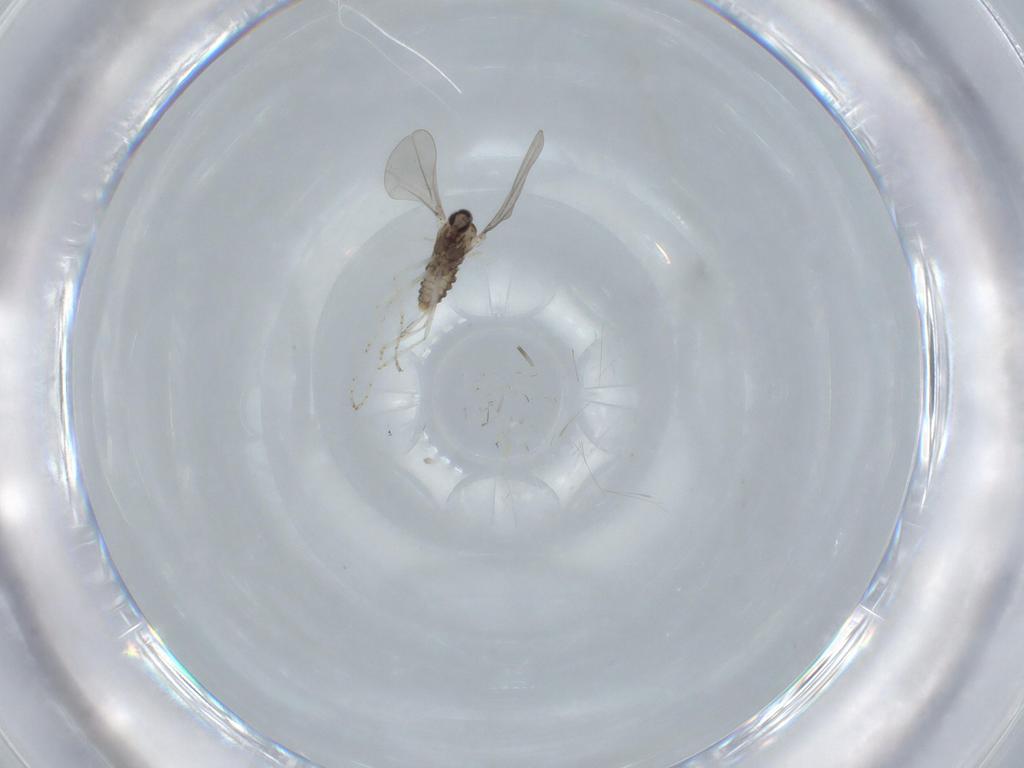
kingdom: Animalia
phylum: Arthropoda
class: Insecta
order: Diptera
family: Cecidomyiidae
